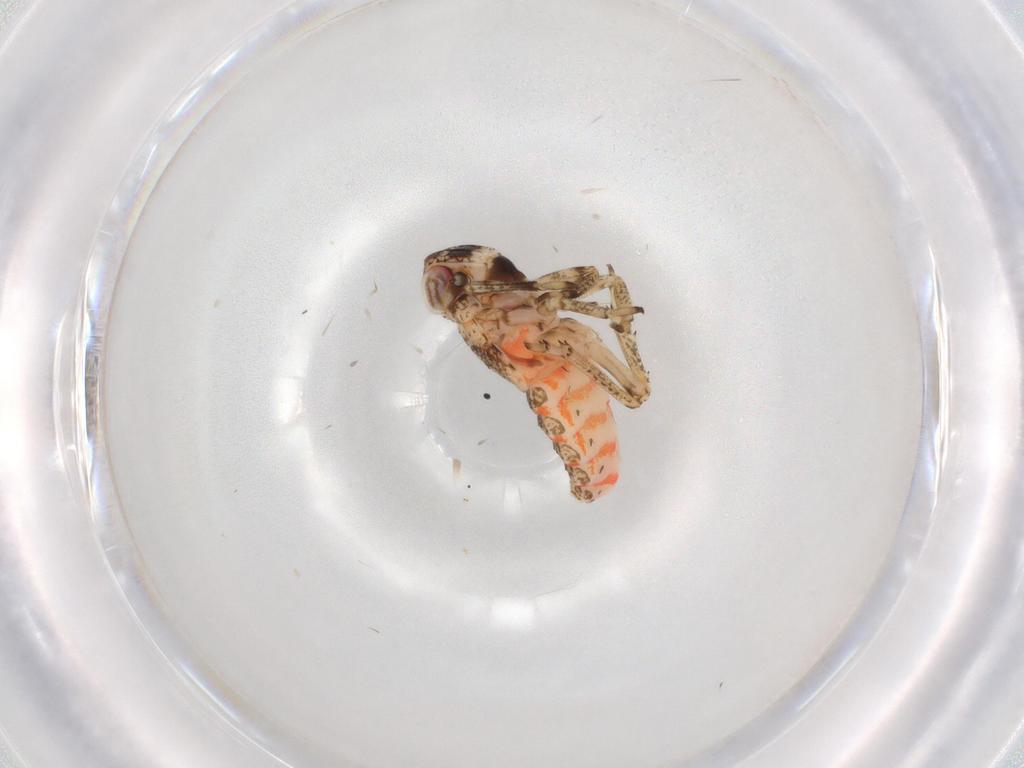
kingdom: Animalia
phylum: Arthropoda
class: Insecta
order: Hemiptera
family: Issidae
